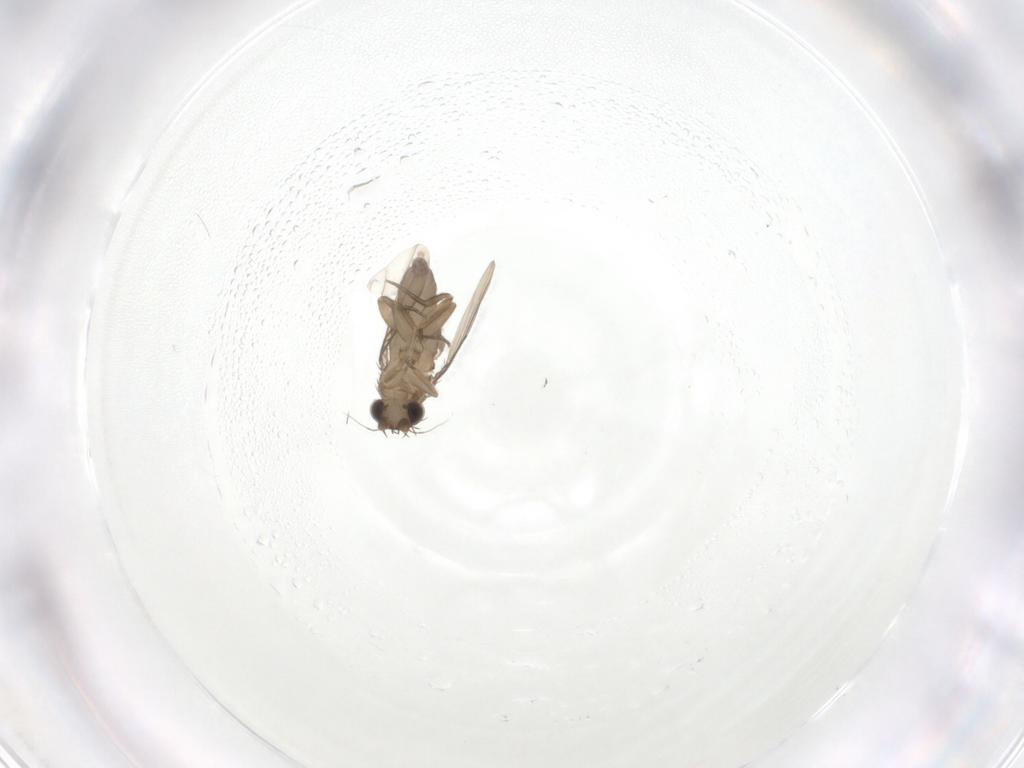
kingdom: Animalia
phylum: Arthropoda
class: Insecta
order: Diptera
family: Phoridae
